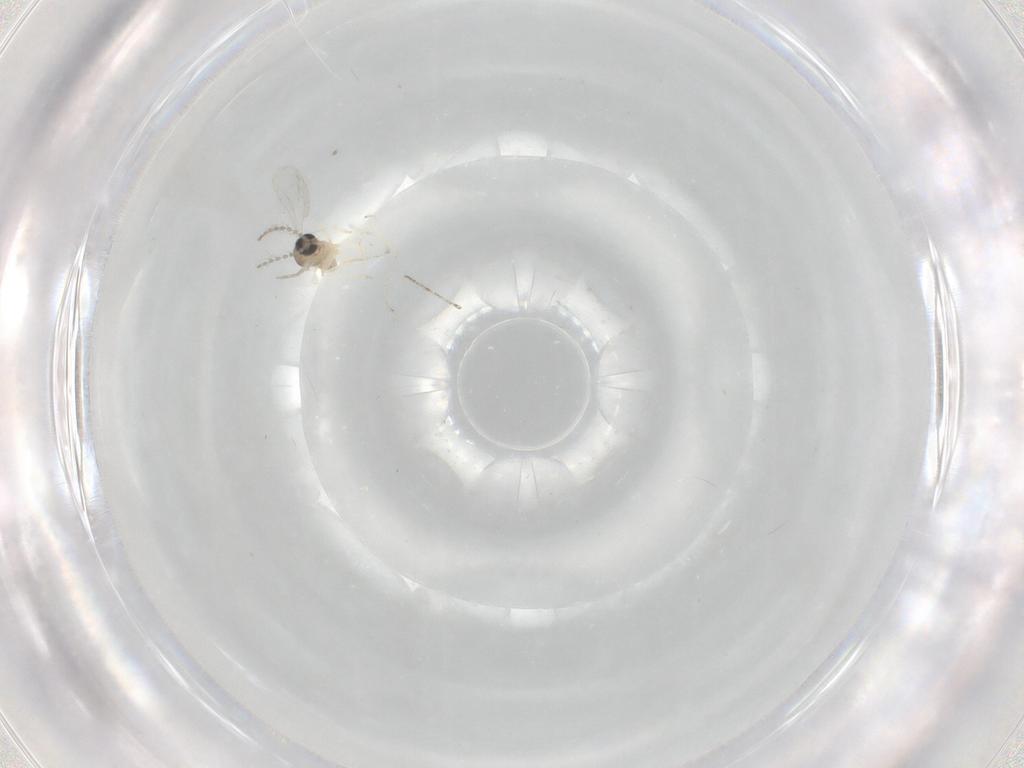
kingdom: Animalia
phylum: Arthropoda
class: Insecta
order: Diptera
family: Cecidomyiidae
